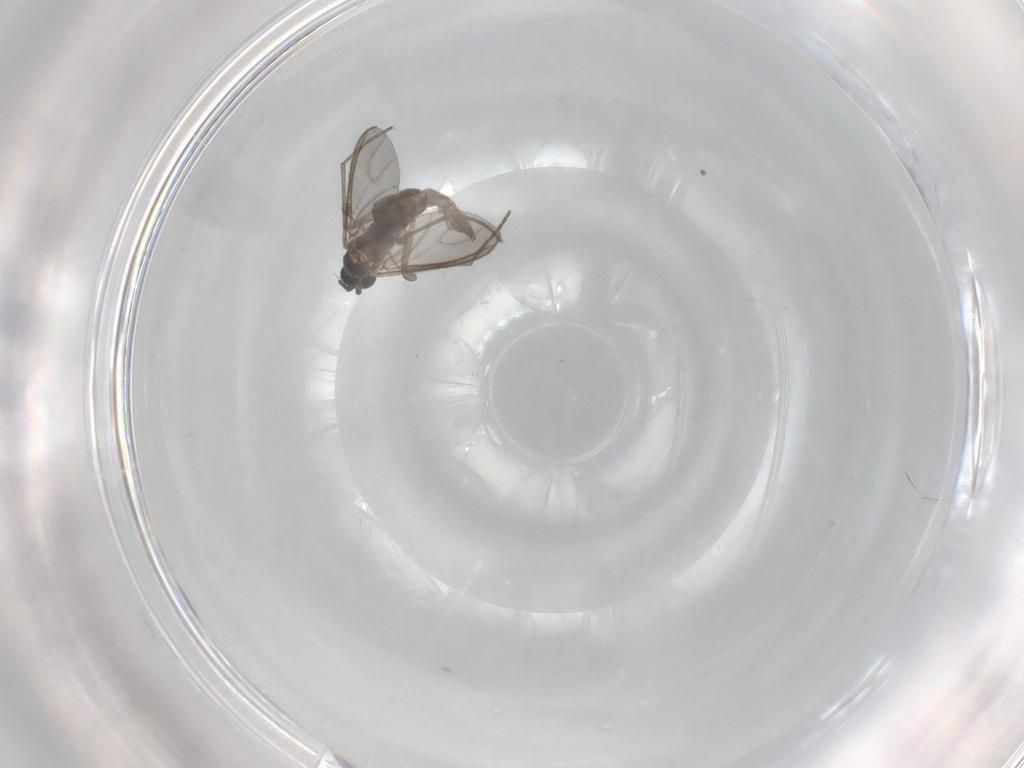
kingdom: Animalia
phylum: Arthropoda
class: Insecta
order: Diptera
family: Sciaridae
